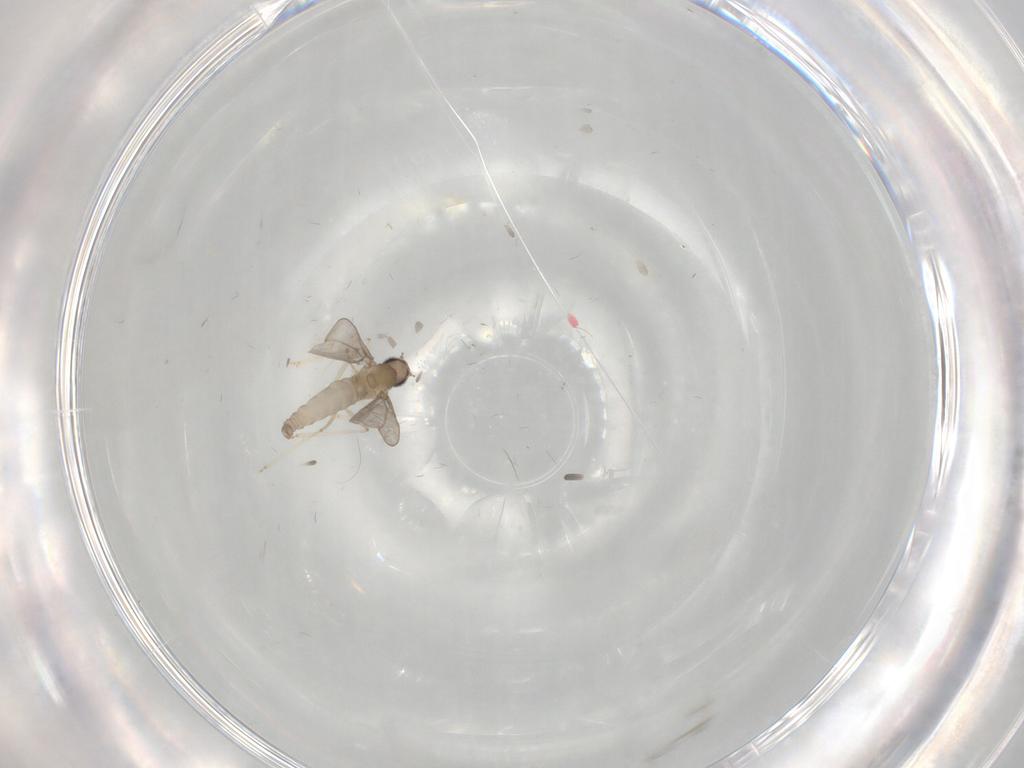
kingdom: Animalia
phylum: Arthropoda
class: Insecta
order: Diptera
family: Cecidomyiidae
